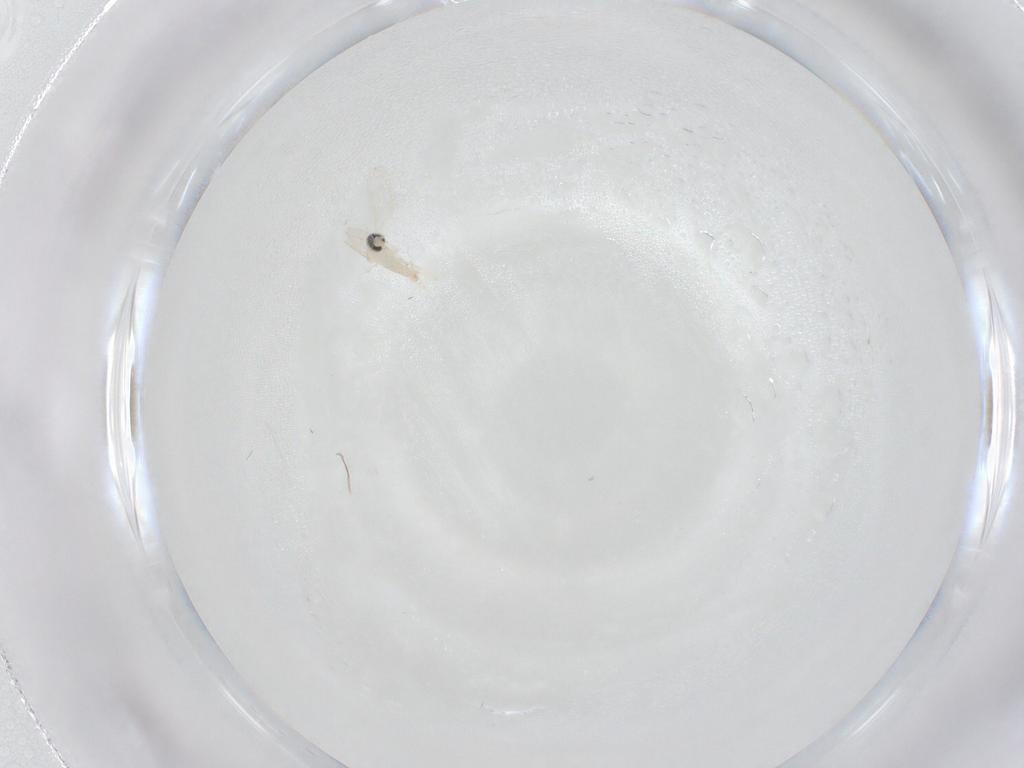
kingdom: Animalia
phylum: Arthropoda
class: Insecta
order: Diptera
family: Cecidomyiidae
